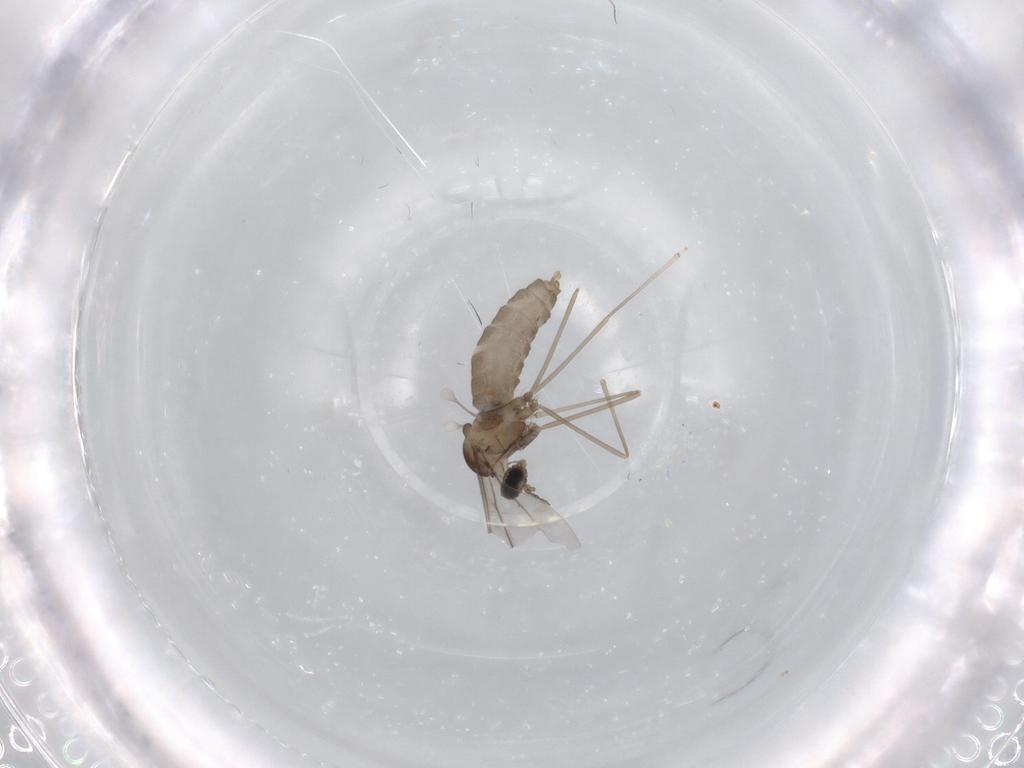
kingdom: Animalia
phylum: Arthropoda
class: Insecta
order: Diptera
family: Cecidomyiidae
